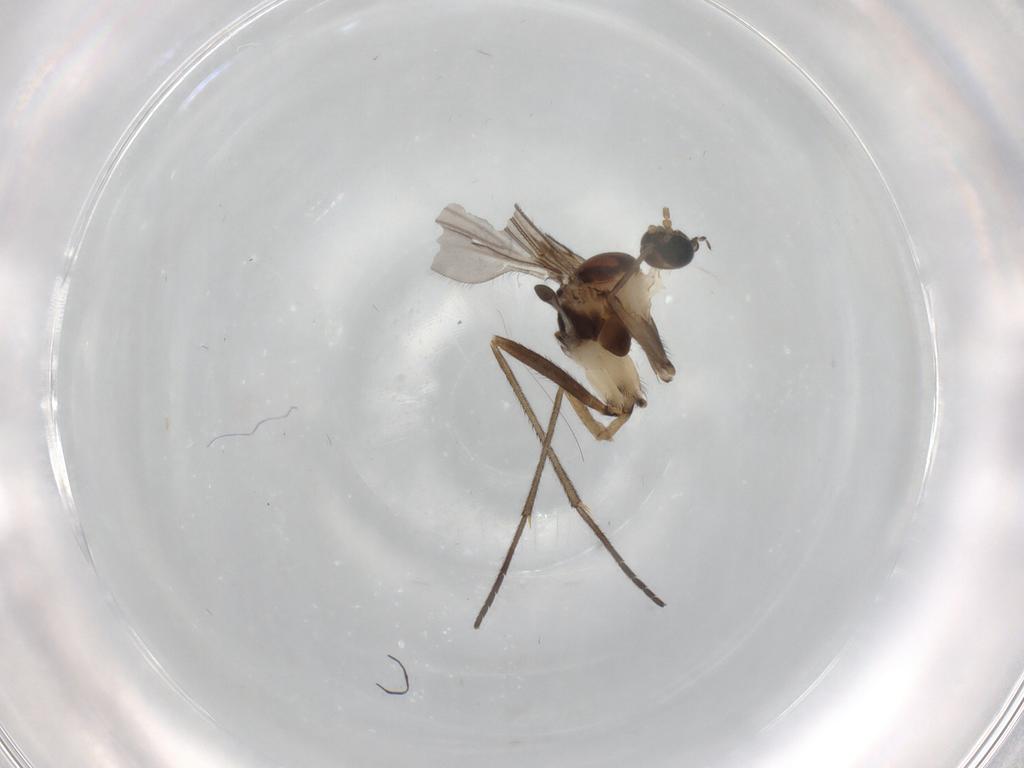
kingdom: Animalia
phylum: Arthropoda
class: Insecta
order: Diptera
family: Sciaridae
